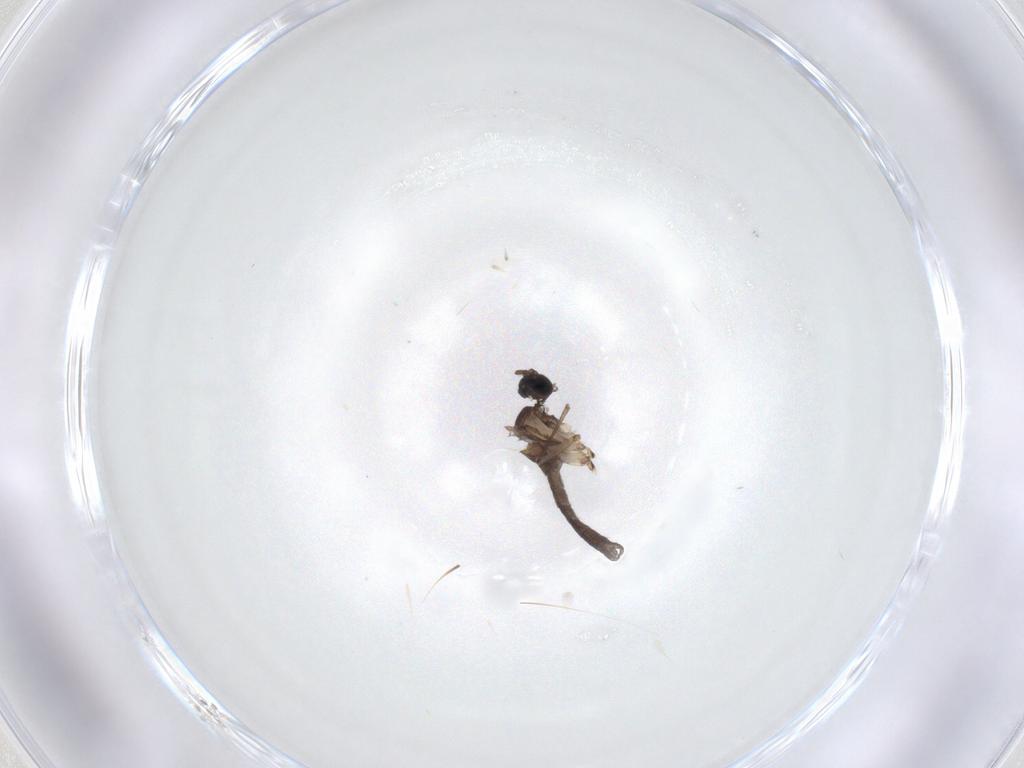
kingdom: Animalia
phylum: Arthropoda
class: Insecta
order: Diptera
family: Sciaridae
